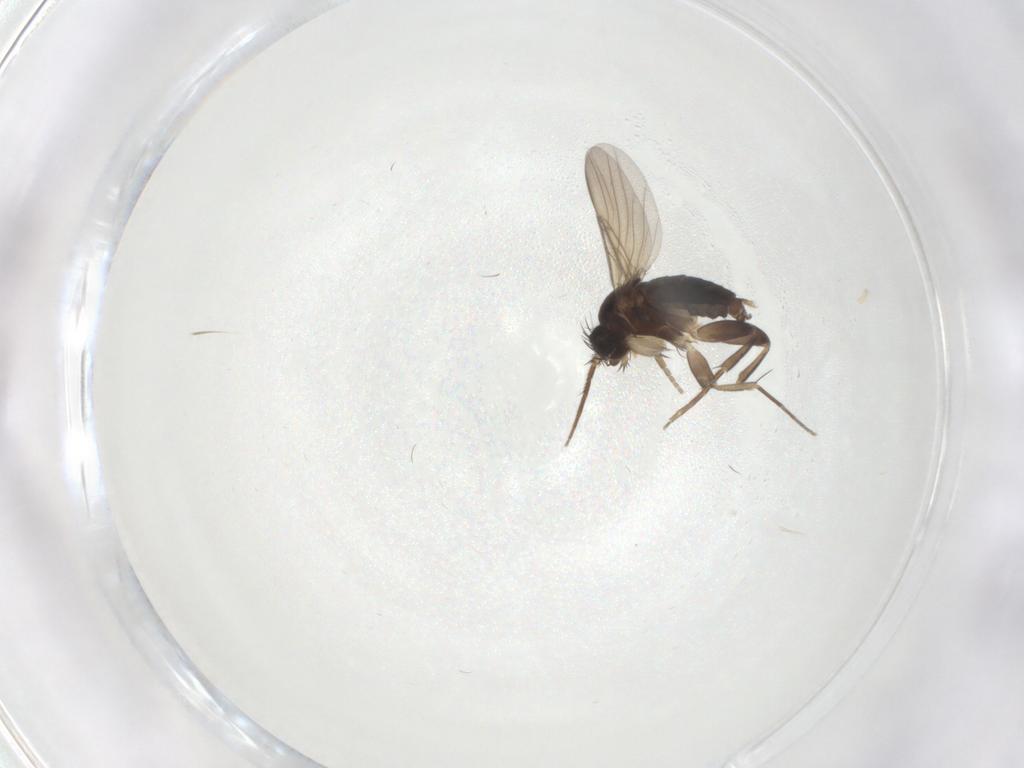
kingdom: Animalia
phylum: Arthropoda
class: Insecta
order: Diptera
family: Phoridae
